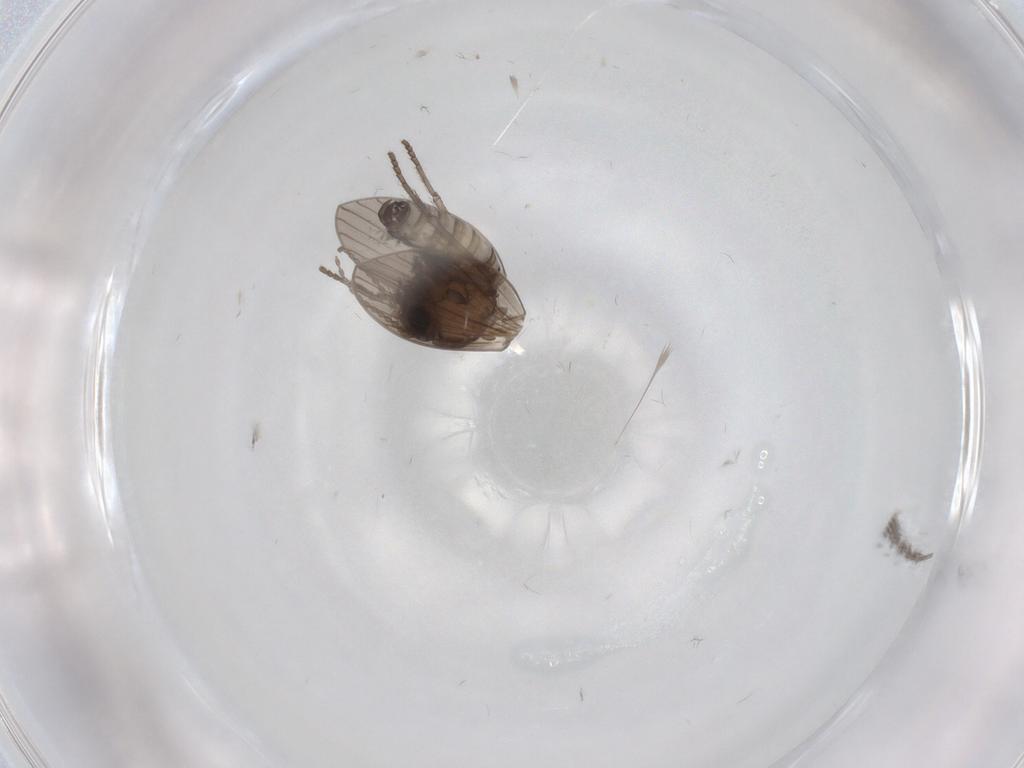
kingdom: Animalia
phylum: Arthropoda
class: Insecta
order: Diptera
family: Psychodidae
